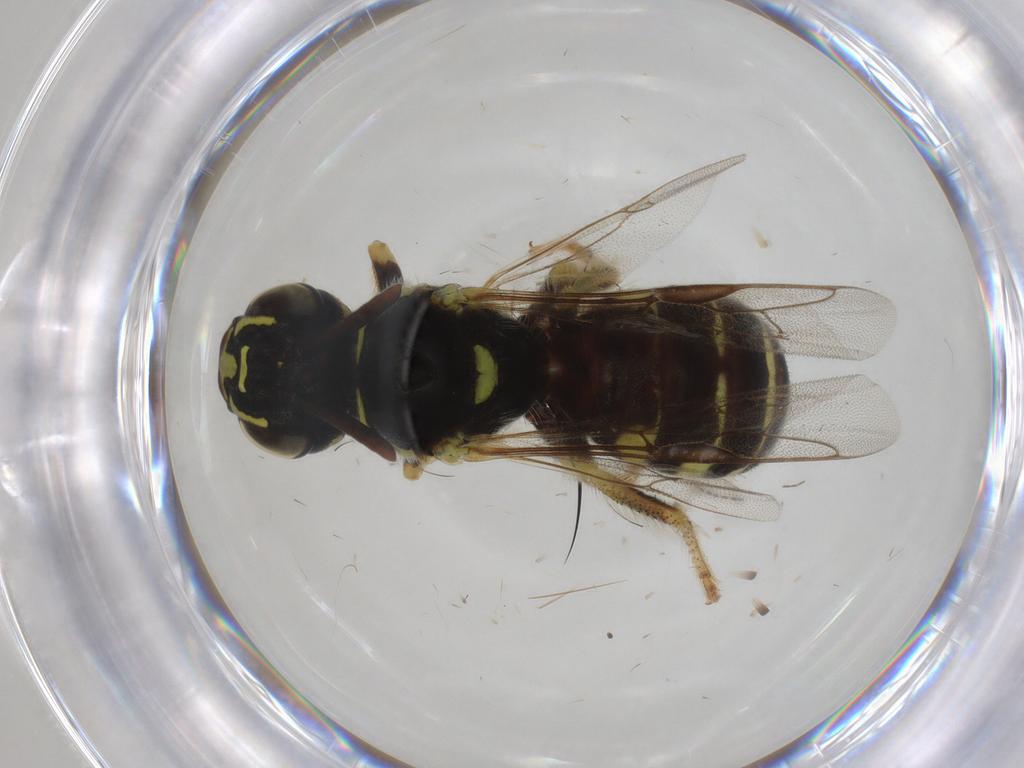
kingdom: Animalia
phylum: Arthropoda
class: Insecta
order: Hymenoptera
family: Apidae
